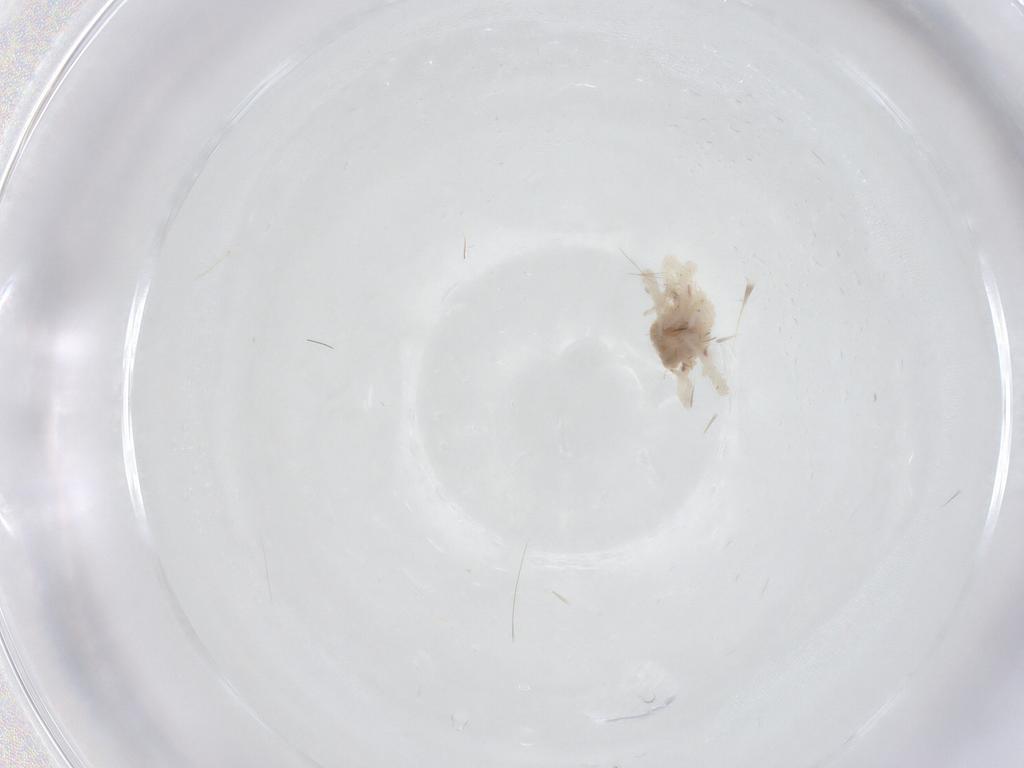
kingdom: Animalia
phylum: Arthropoda
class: Arachnida
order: Trombidiformes
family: Anystidae
